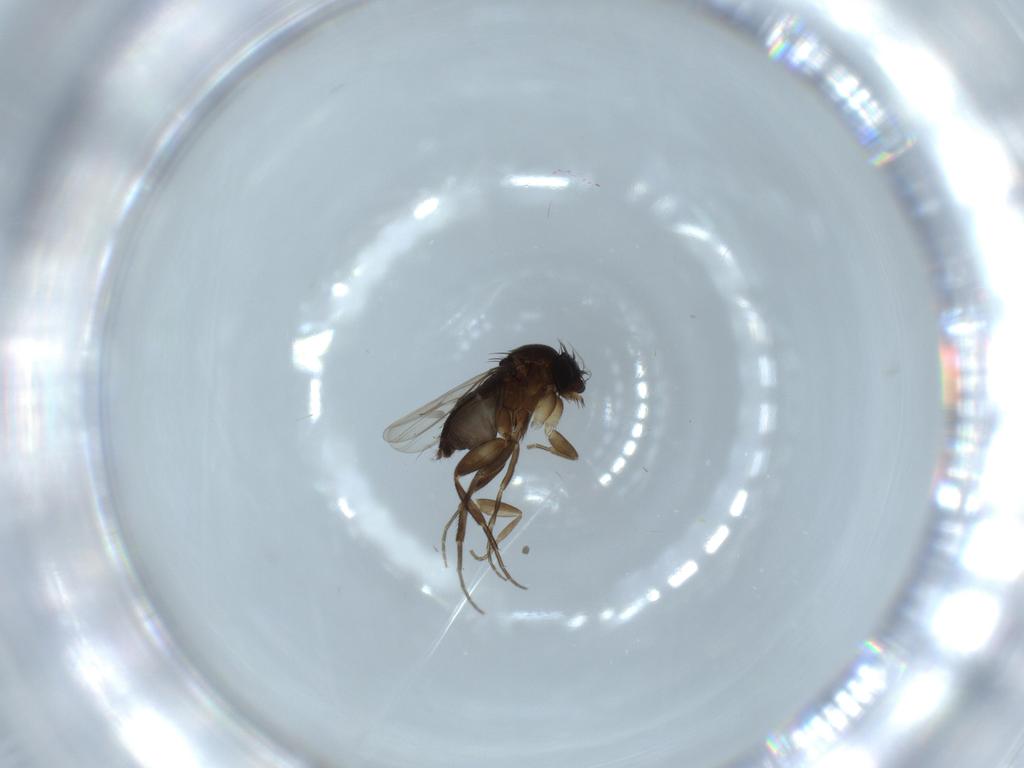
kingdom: Animalia
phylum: Arthropoda
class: Insecta
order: Diptera
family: Phoridae
